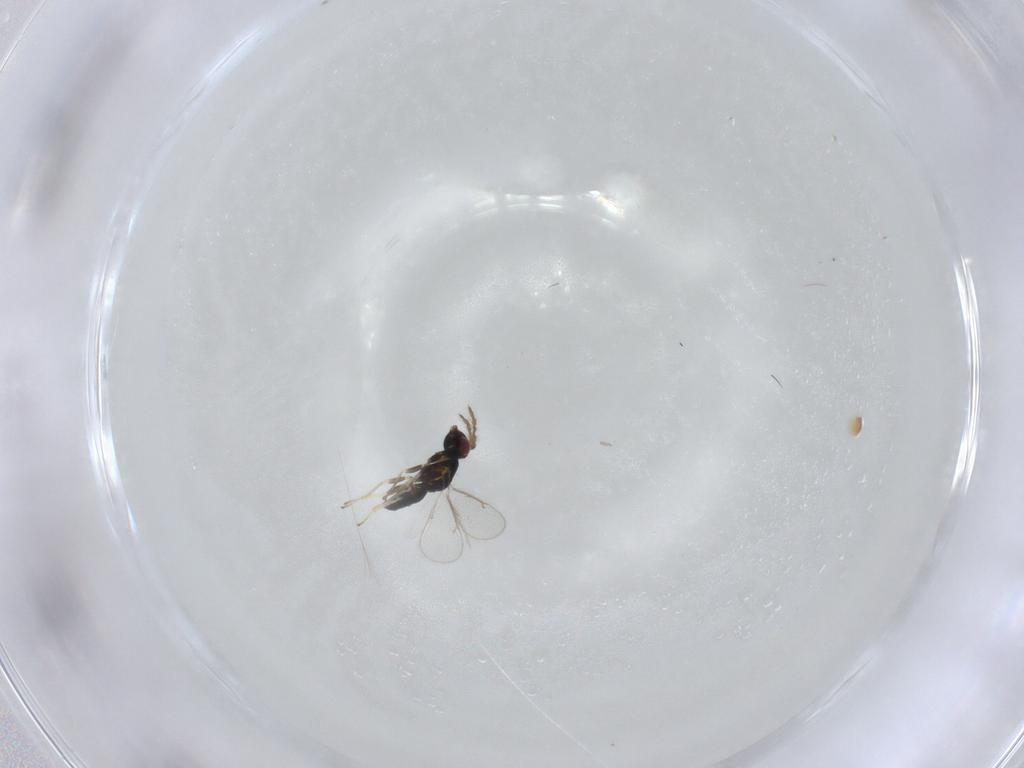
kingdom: Animalia
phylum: Arthropoda
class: Insecta
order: Hymenoptera
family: Eulophidae
